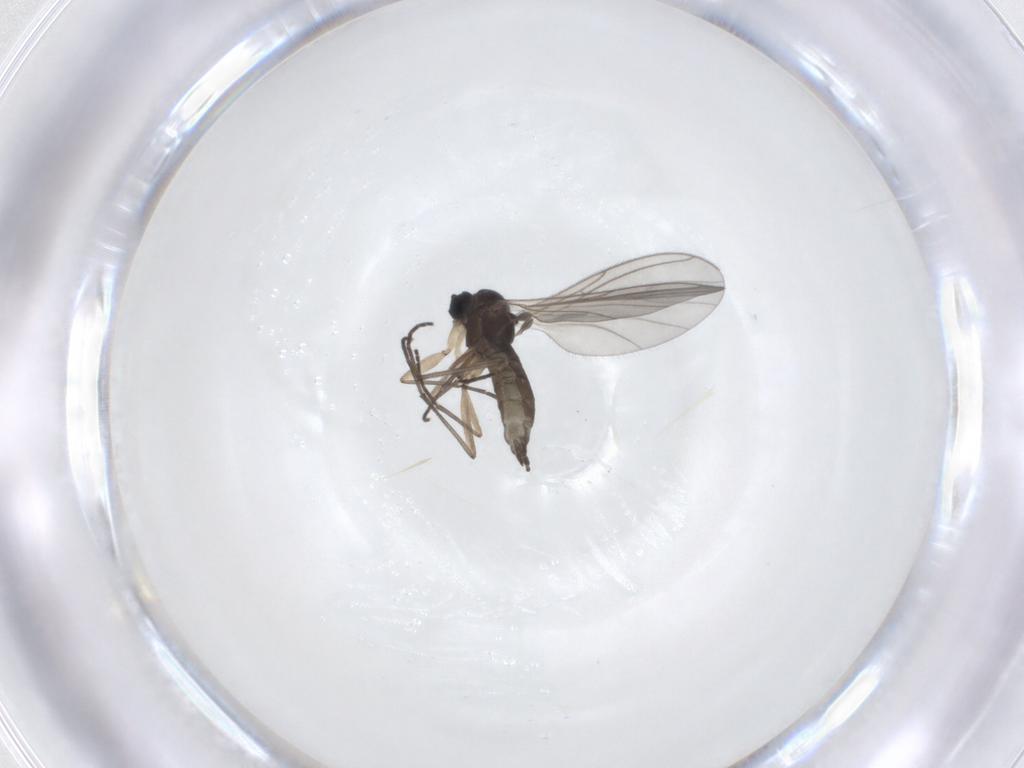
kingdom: Animalia
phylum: Arthropoda
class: Insecta
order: Diptera
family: Sciaridae
